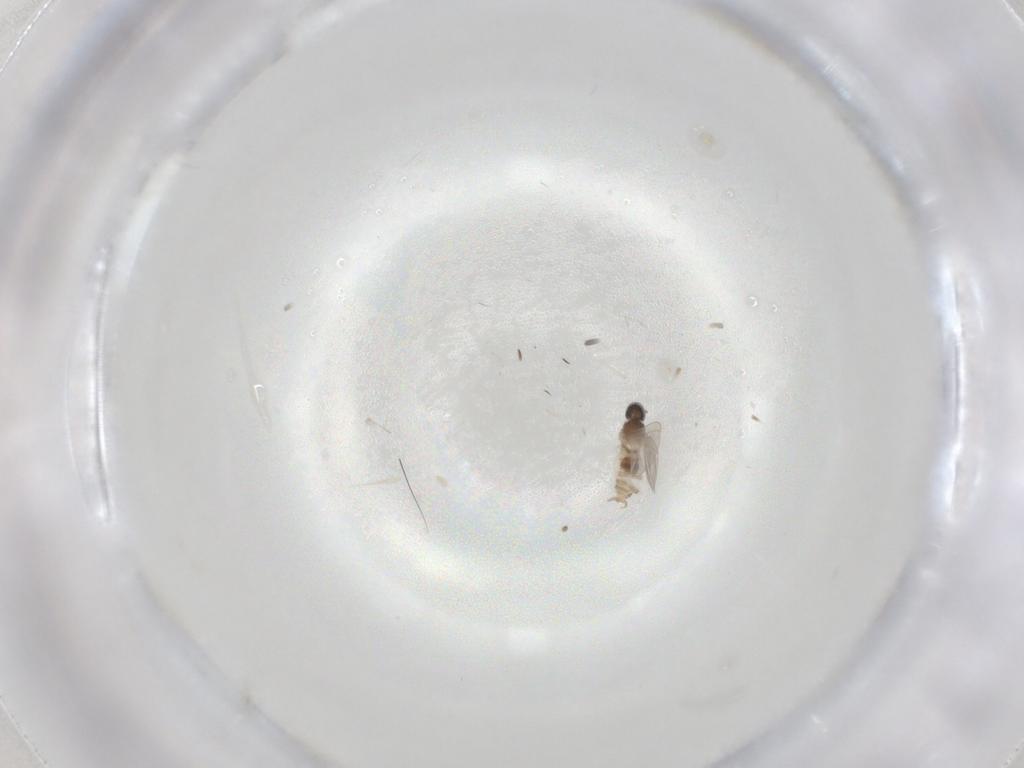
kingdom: Animalia
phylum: Arthropoda
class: Insecta
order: Diptera
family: Cecidomyiidae
